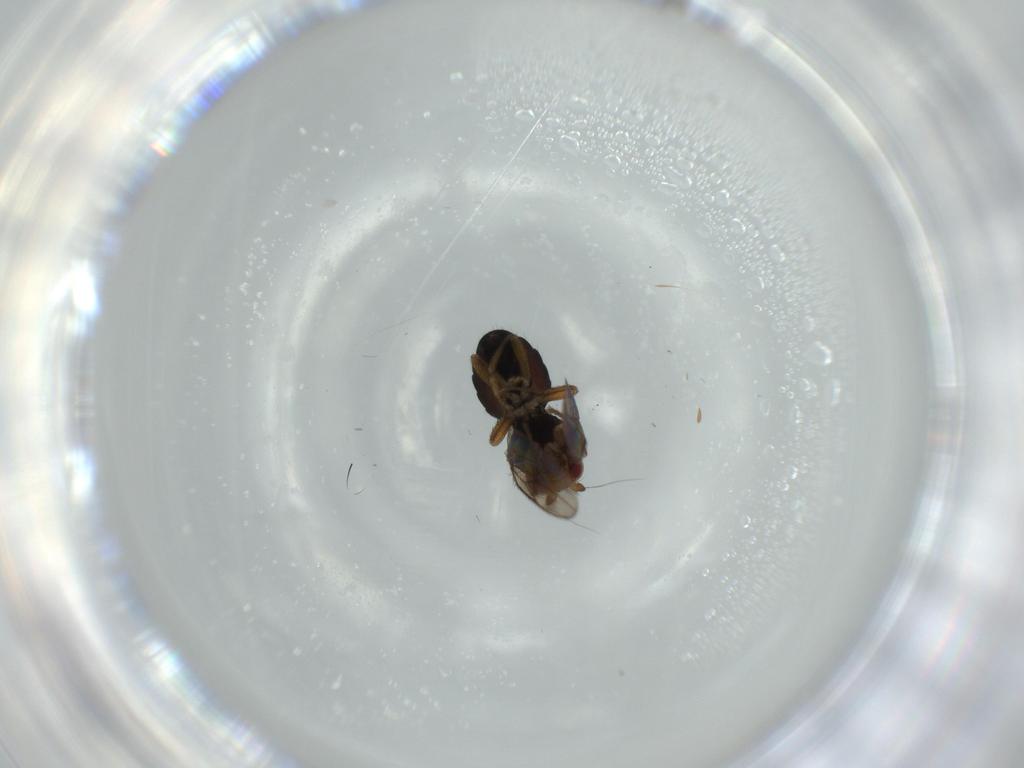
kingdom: Animalia
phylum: Arthropoda
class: Insecta
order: Diptera
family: Sphaeroceridae
